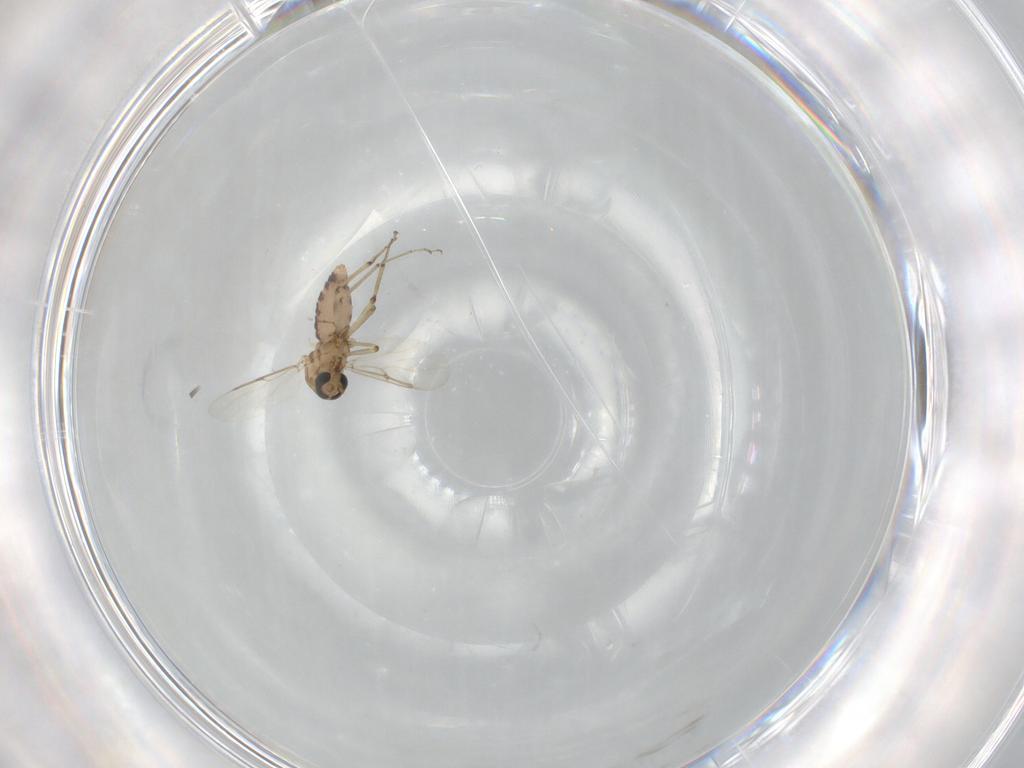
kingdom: Animalia
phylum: Arthropoda
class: Insecta
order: Diptera
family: Ceratopogonidae
